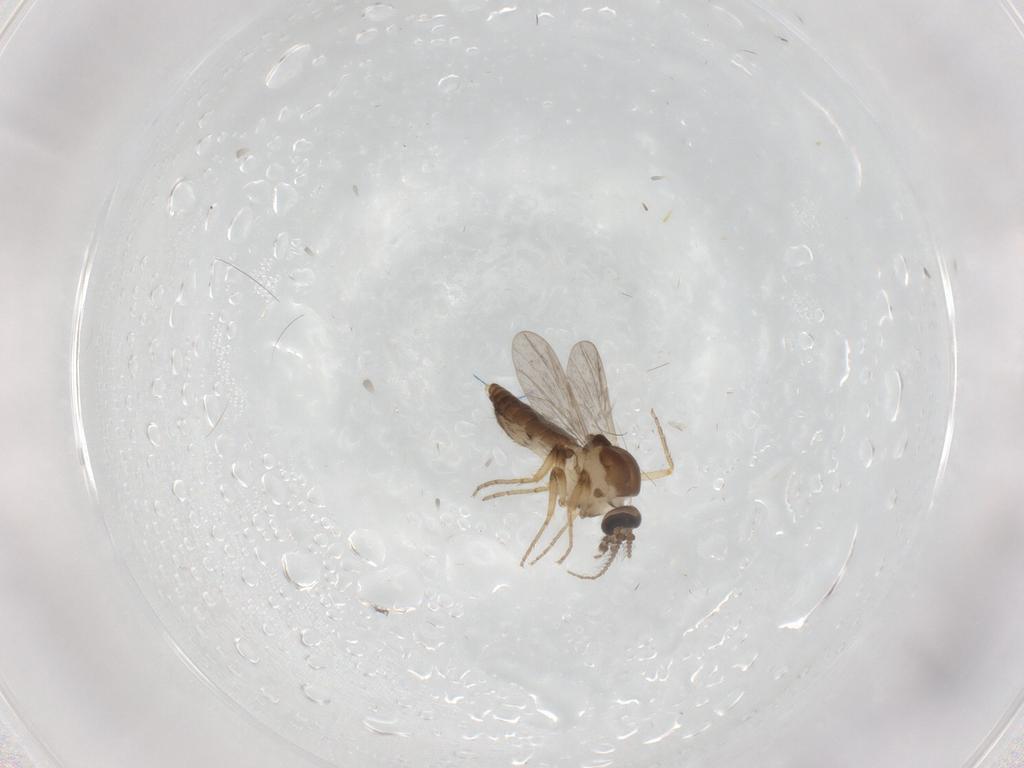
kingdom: Animalia
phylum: Arthropoda
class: Insecta
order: Diptera
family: Ceratopogonidae
